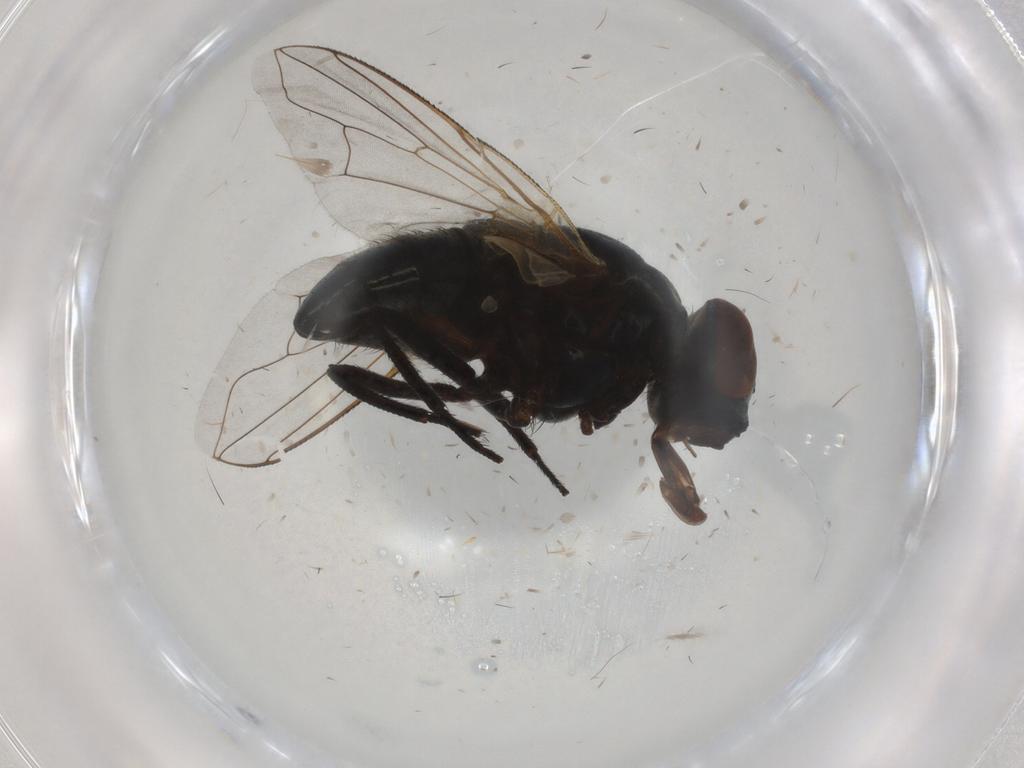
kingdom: Animalia
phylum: Arthropoda
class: Insecta
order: Diptera
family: Muscidae
